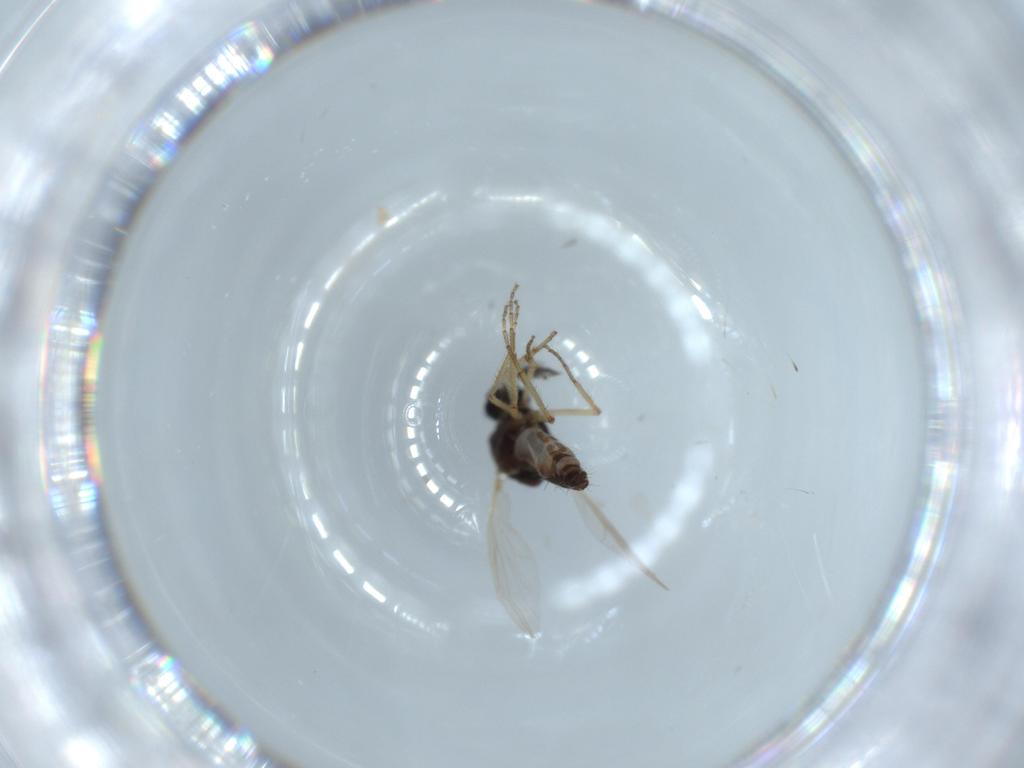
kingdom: Animalia
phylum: Arthropoda
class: Insecta
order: Diptera
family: Ceratopogonidae
